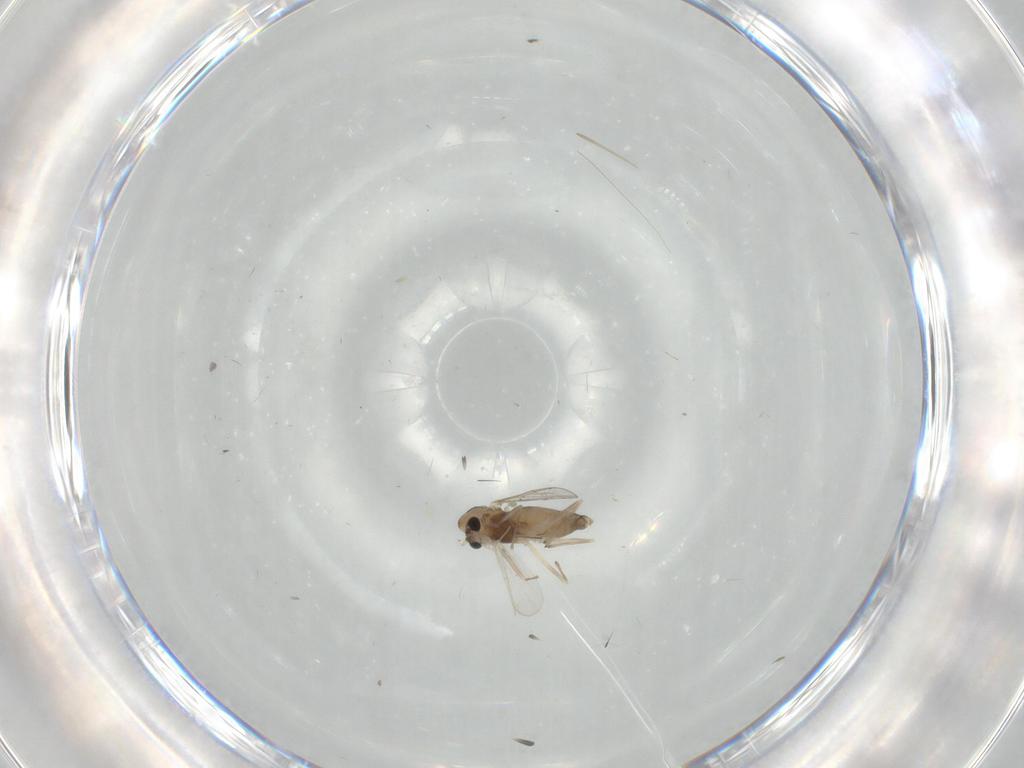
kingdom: Animalia
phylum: Arthropoda
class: Insecta
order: Diptera
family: Chironomidae
